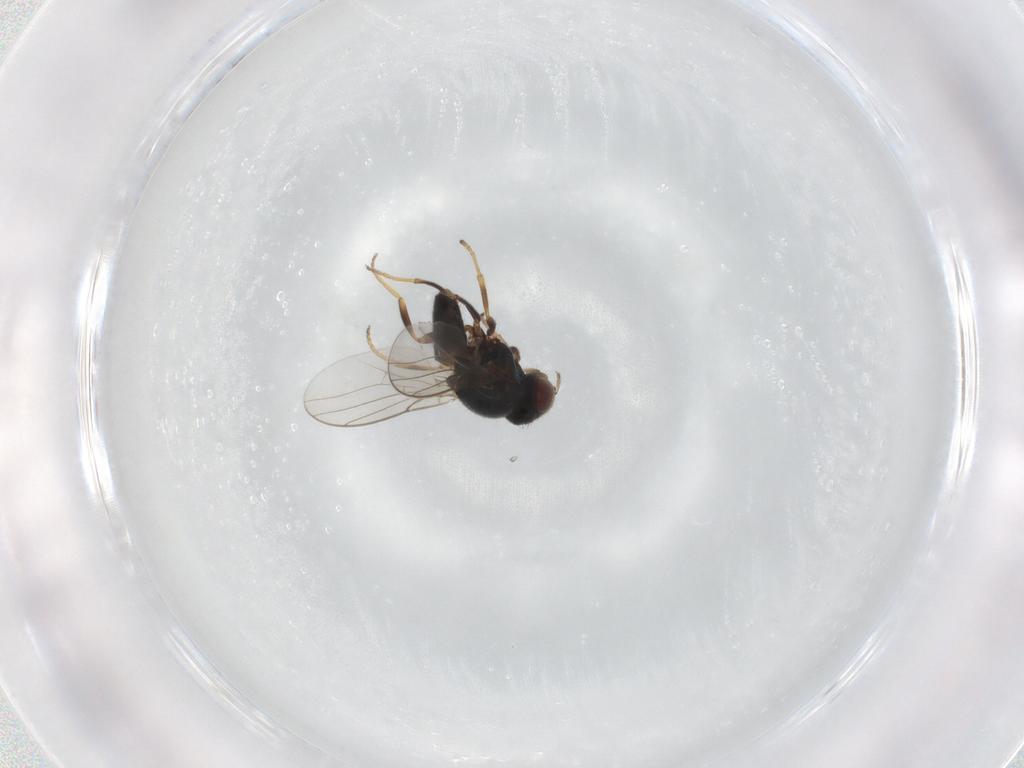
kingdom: Animalia
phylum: Arthropoda
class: Insecta
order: Diptera
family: Chloropidae
